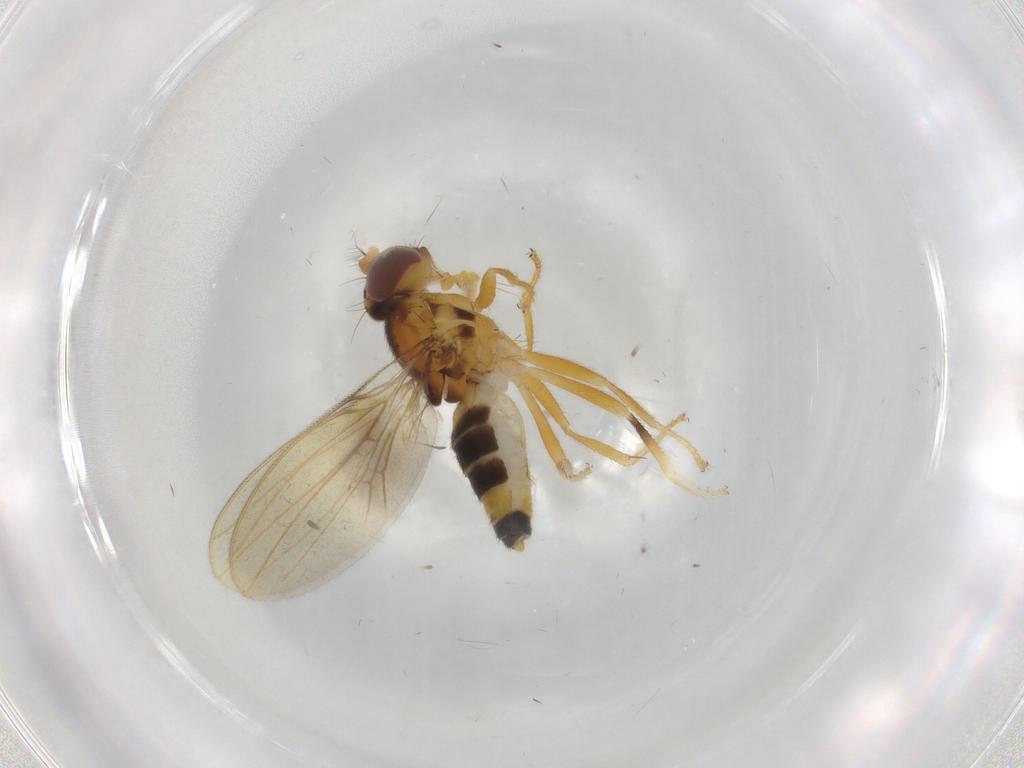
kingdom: Animalia
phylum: Arthropoda
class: Insecta
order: Diptera
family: Periscelididae
